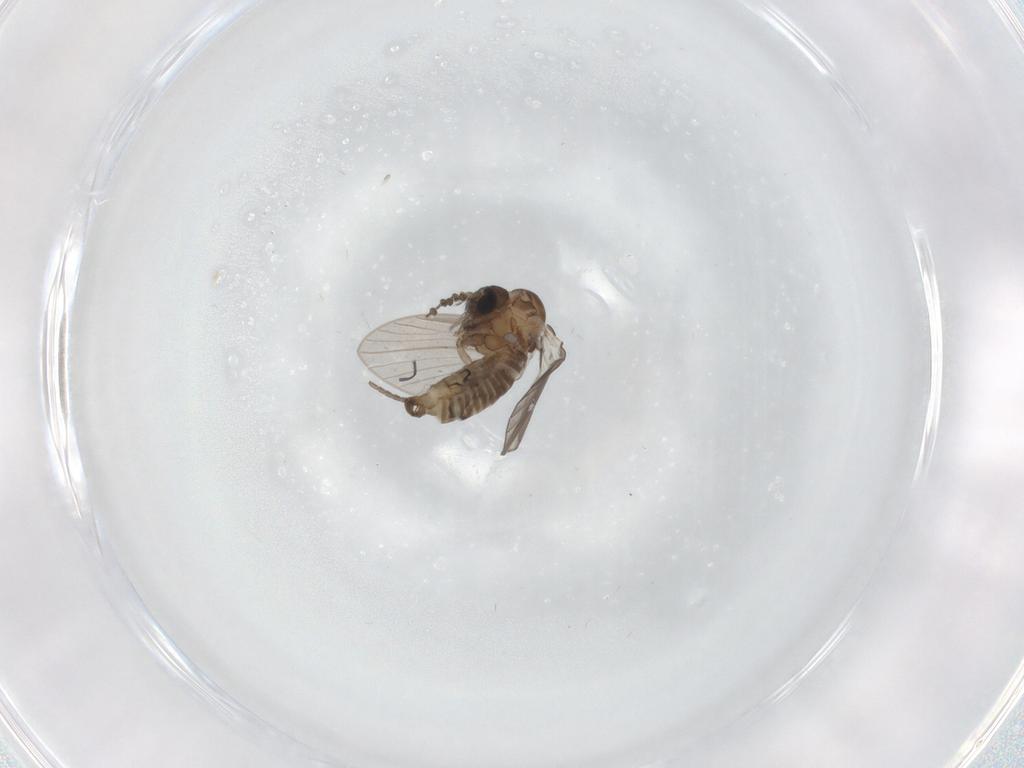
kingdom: Animalia
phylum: Arthropoda
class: Insecta
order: Diptera
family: Psychodidae
